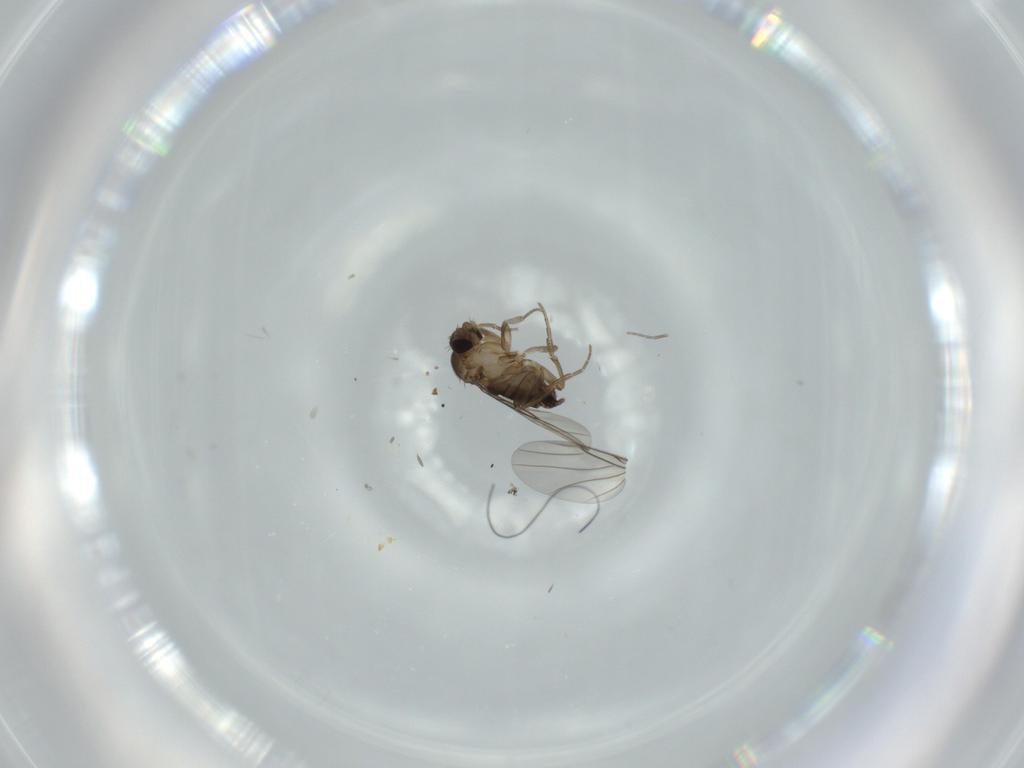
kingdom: Animalia
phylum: Arthropoda
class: Insecta
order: Diptera
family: Phoridae
